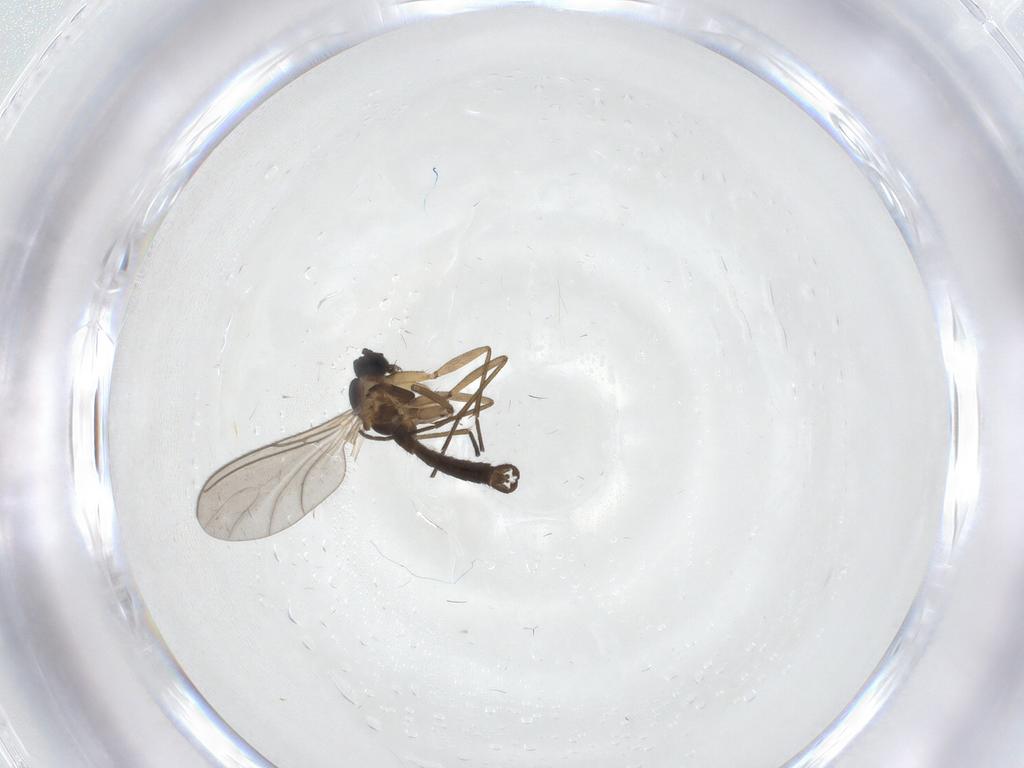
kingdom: Animalia
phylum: Arthropoda
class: Insecta
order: Diptera
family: Sciaridae
